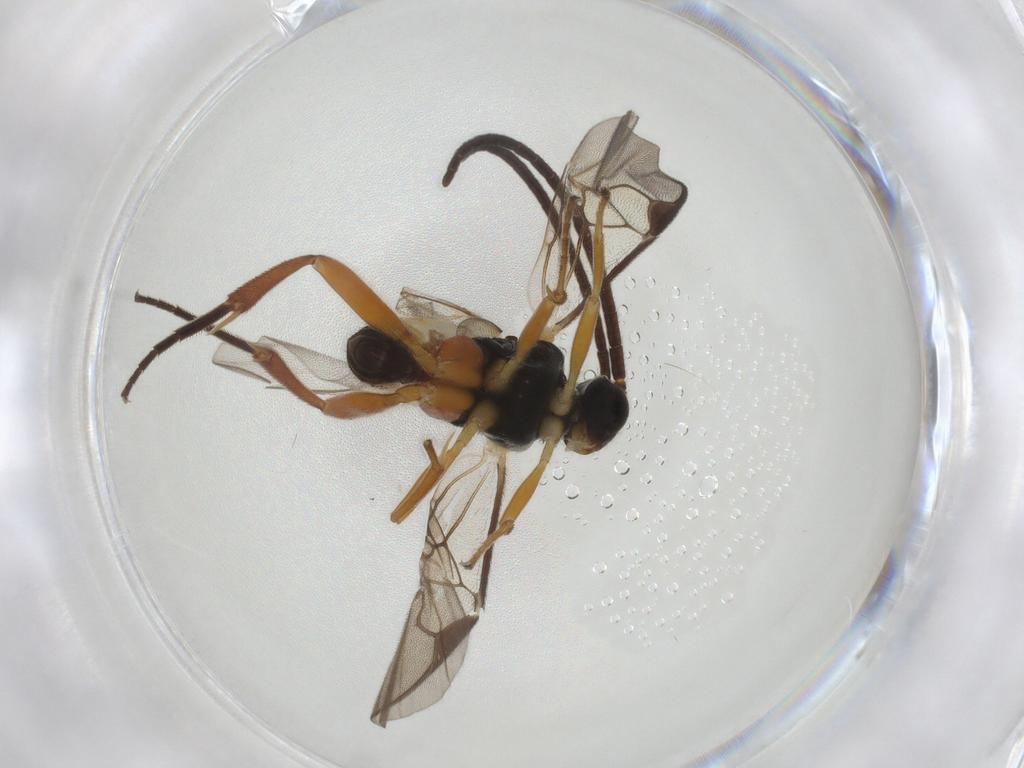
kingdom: Animalia
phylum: Arthropoda
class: Insecta
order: Hymenoptera
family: Braconidae
